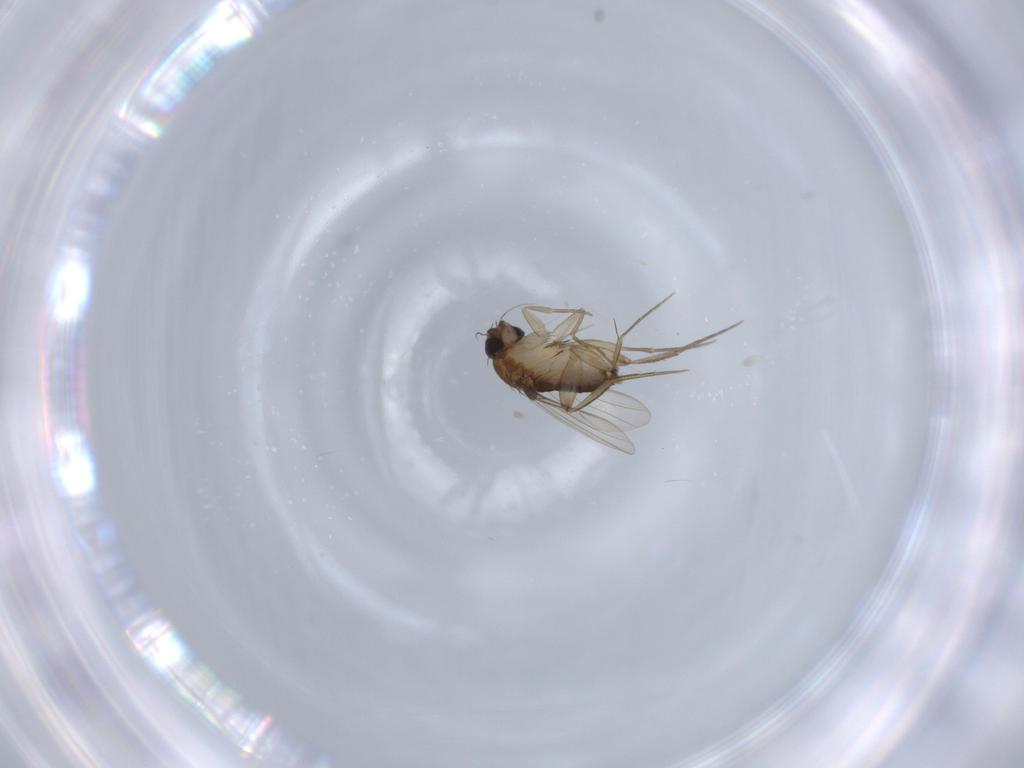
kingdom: Animalia
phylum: Arthropoda
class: Insecta
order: Diptera
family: Phoridae
